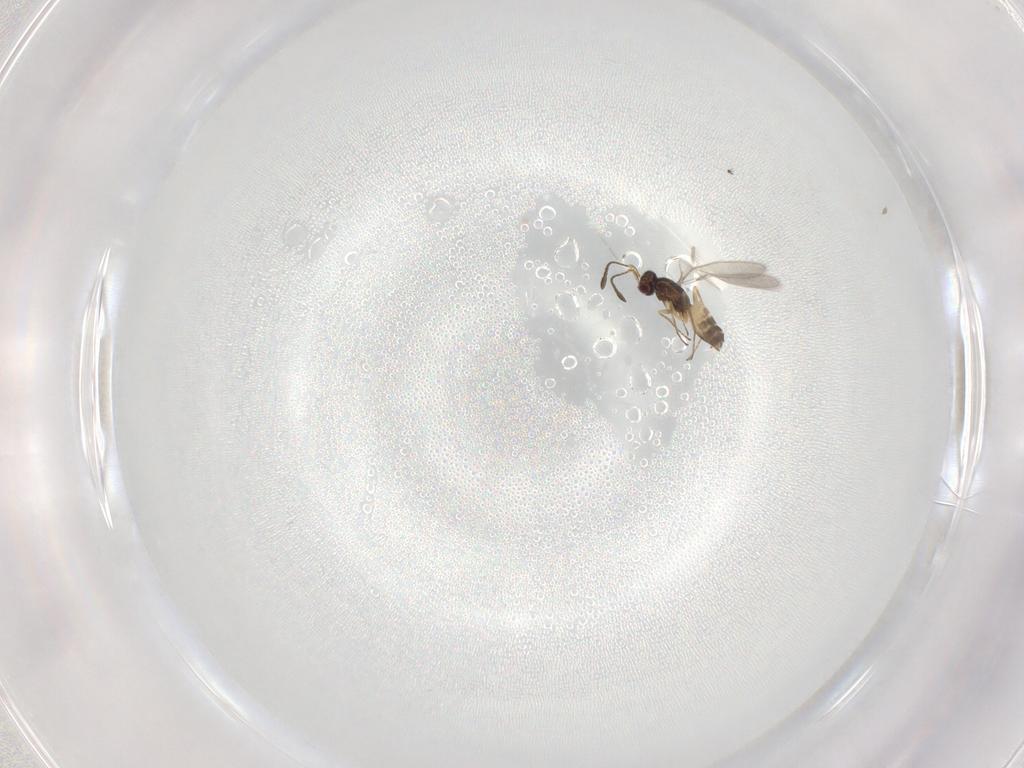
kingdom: Animalia
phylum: Arthropoda
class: Insecta
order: Hymenoptera
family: Mymaridae
